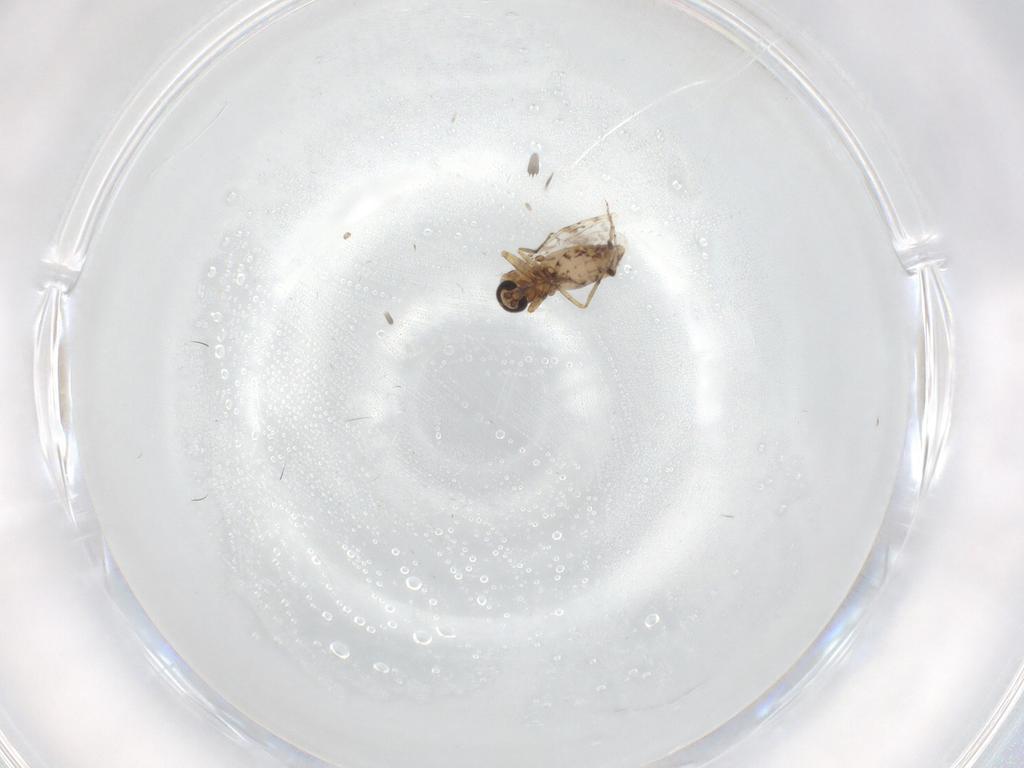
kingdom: Animalia
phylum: Arthropoda
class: Insecta
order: Diptera
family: Ceratopogonidae
